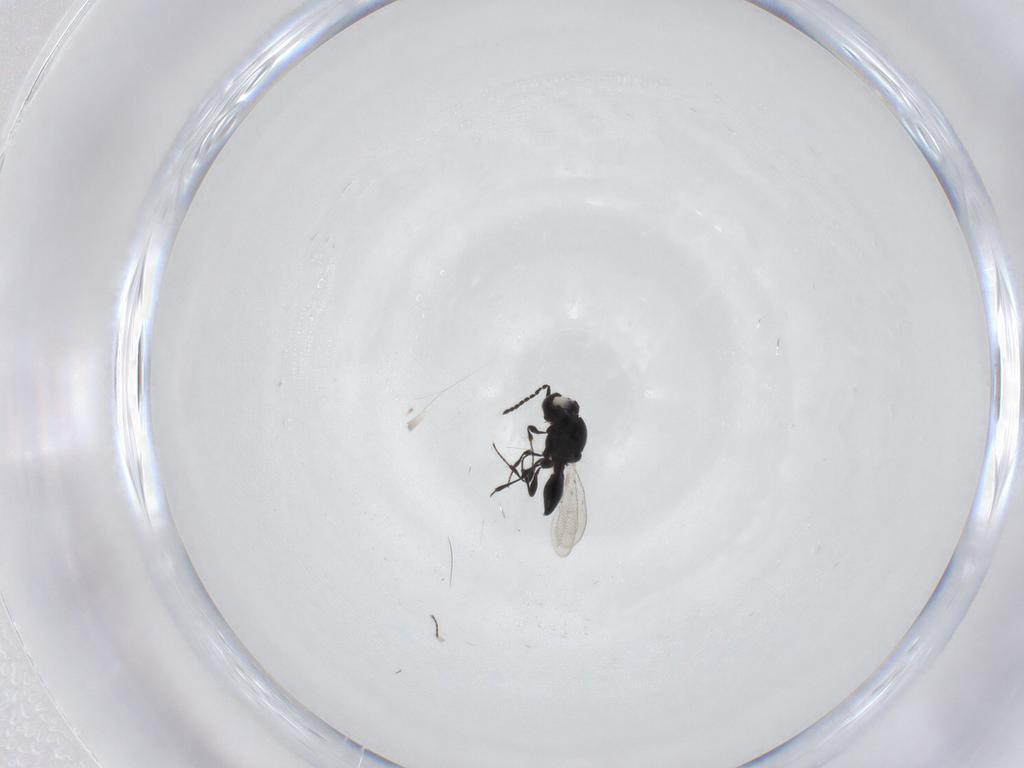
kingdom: Animalia
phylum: Arthropoda
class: Insecta
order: Hymenoptera
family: Platygastridae
